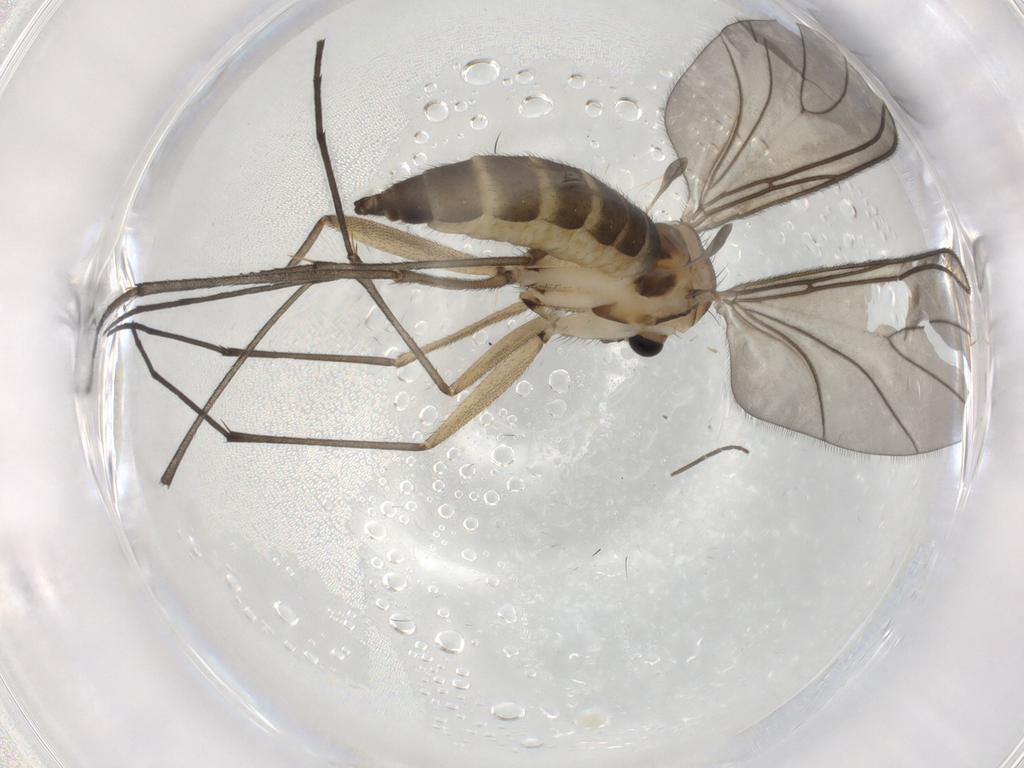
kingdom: Animalia
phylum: Arthropoda
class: Insecta
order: Diptera
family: Sciaridae
